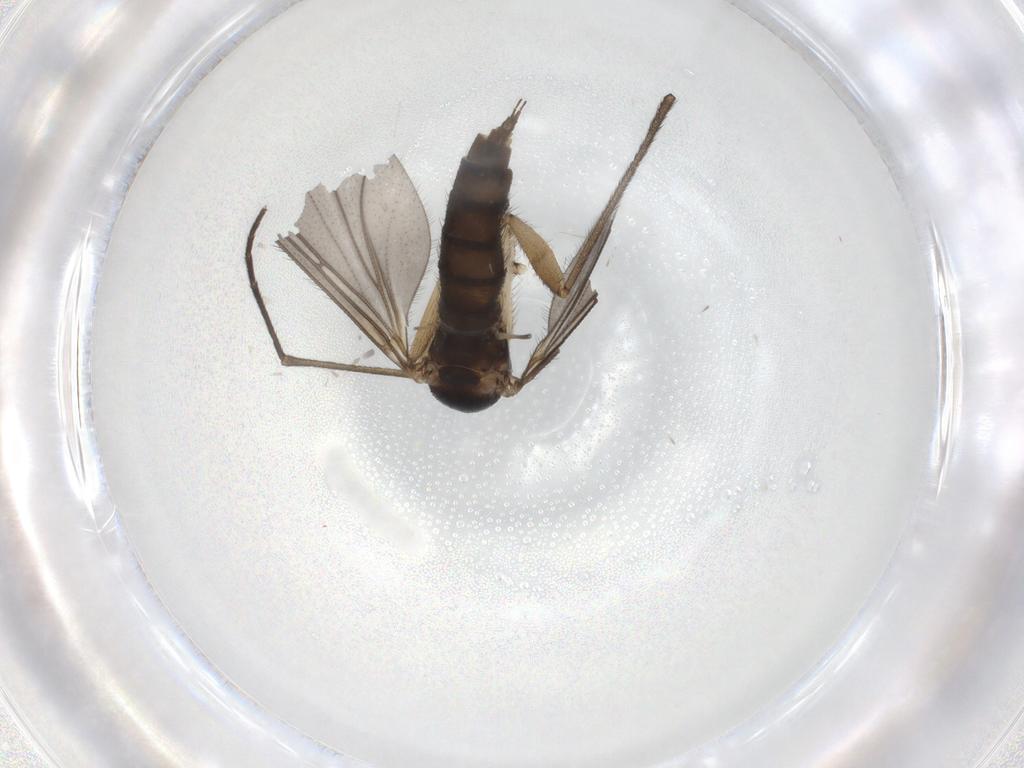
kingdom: Animalia
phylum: Arthropoda
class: Insecta
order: Diptera
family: Sciaridae
